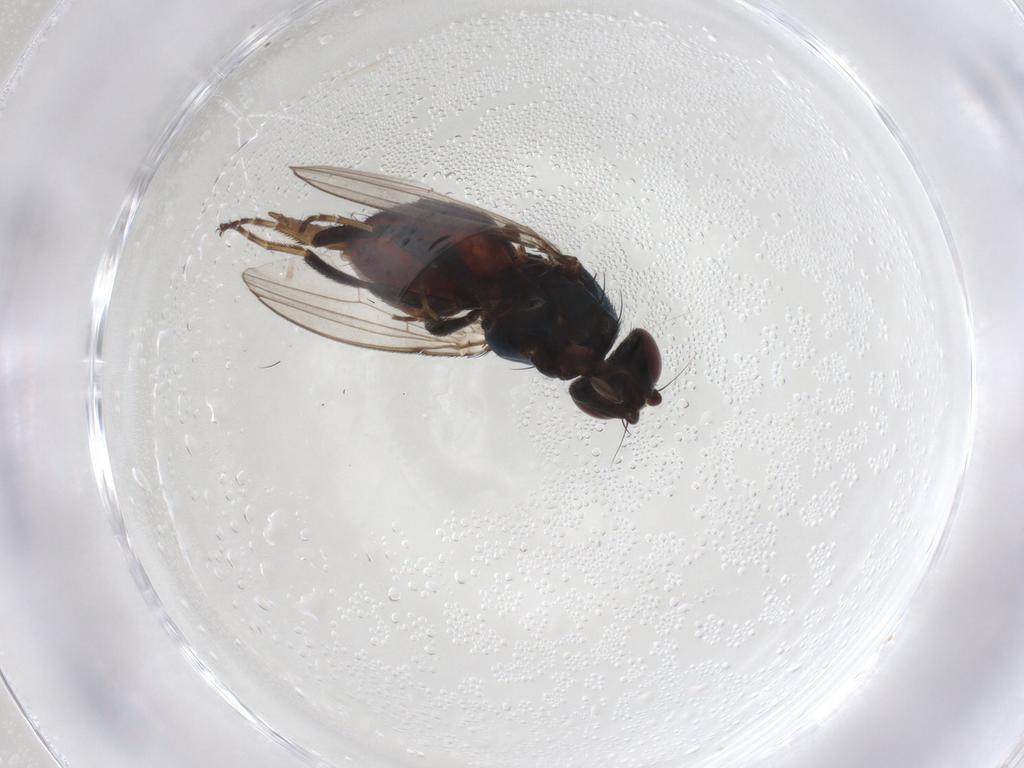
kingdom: Animalia
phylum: Arthropoda
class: Insecta
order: Diptera
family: Chloropidae
